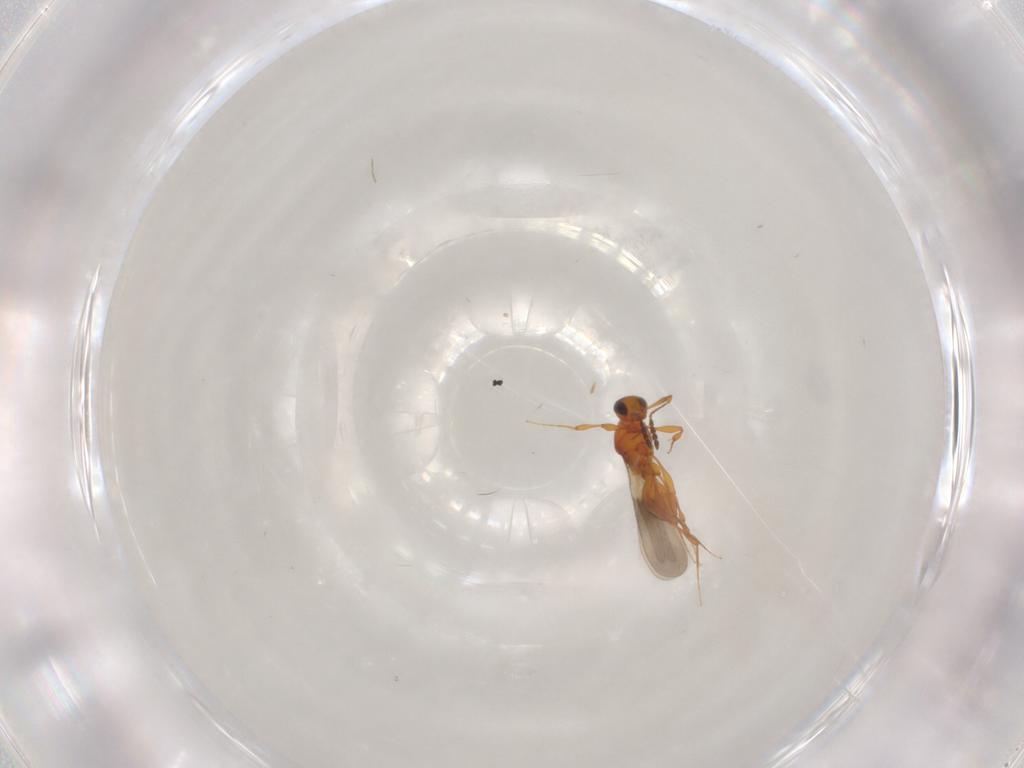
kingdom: Animalia
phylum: Arthropoda
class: Insecta
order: Hymenoptera
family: Platygastridae
